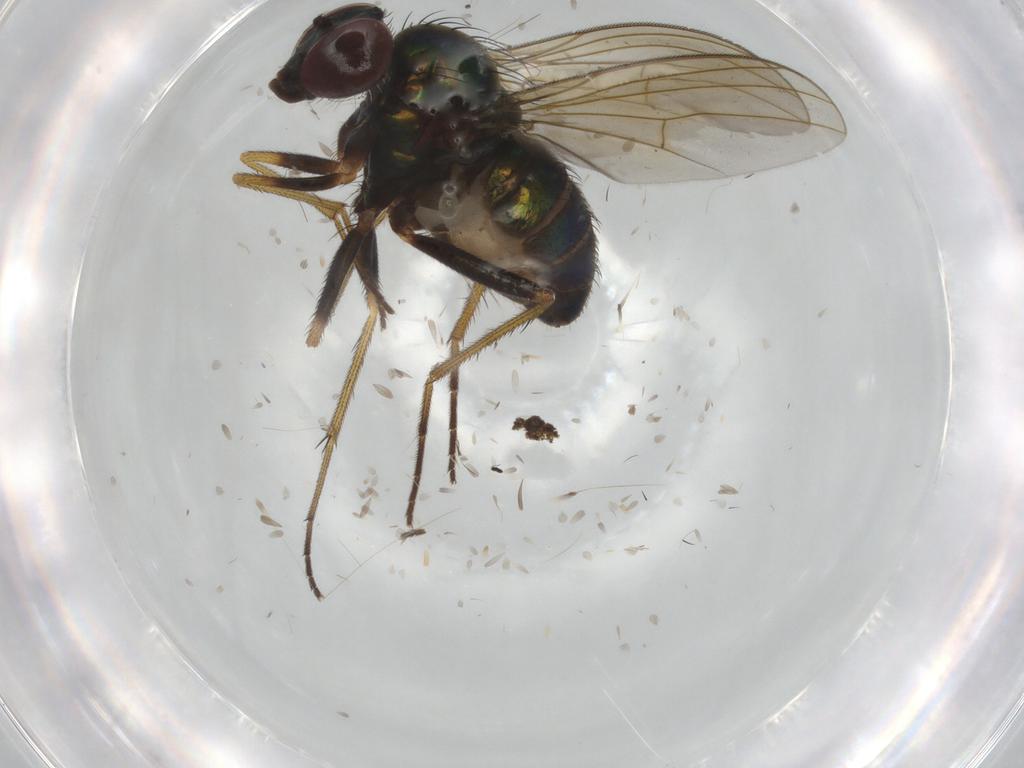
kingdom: Animalia
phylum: Arthropoda
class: Insecta
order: Diptera
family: Dolichopodidae
